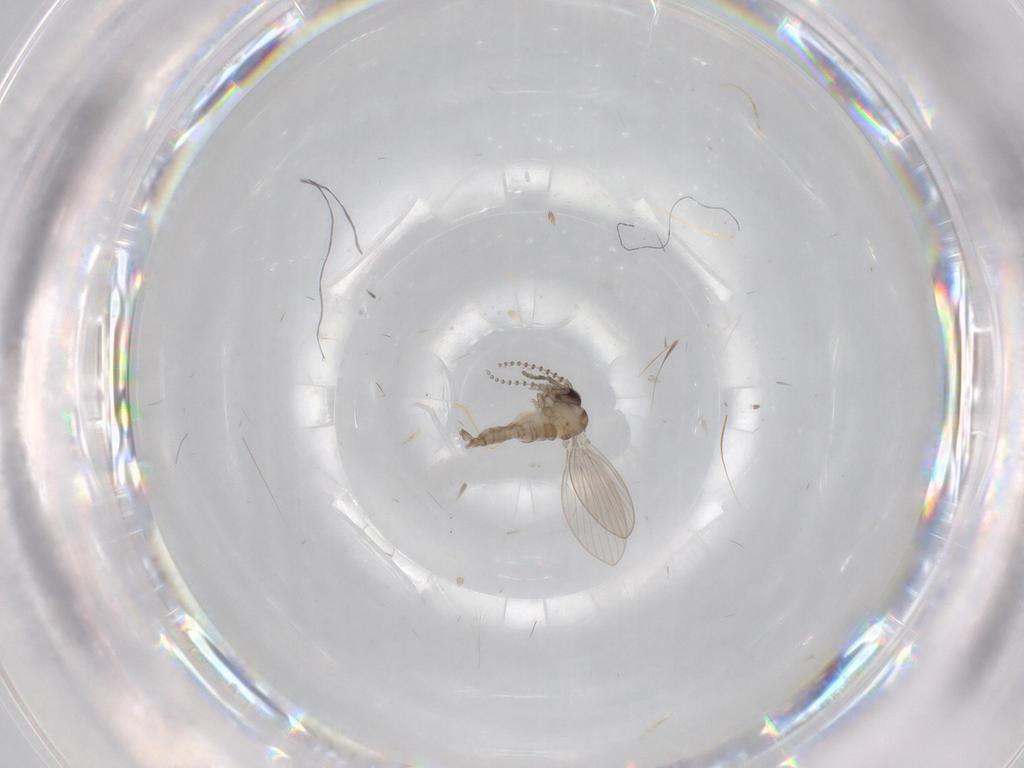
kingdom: Animalia
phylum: Arthropoda
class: Insecta
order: Diptera
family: Psychodidae
